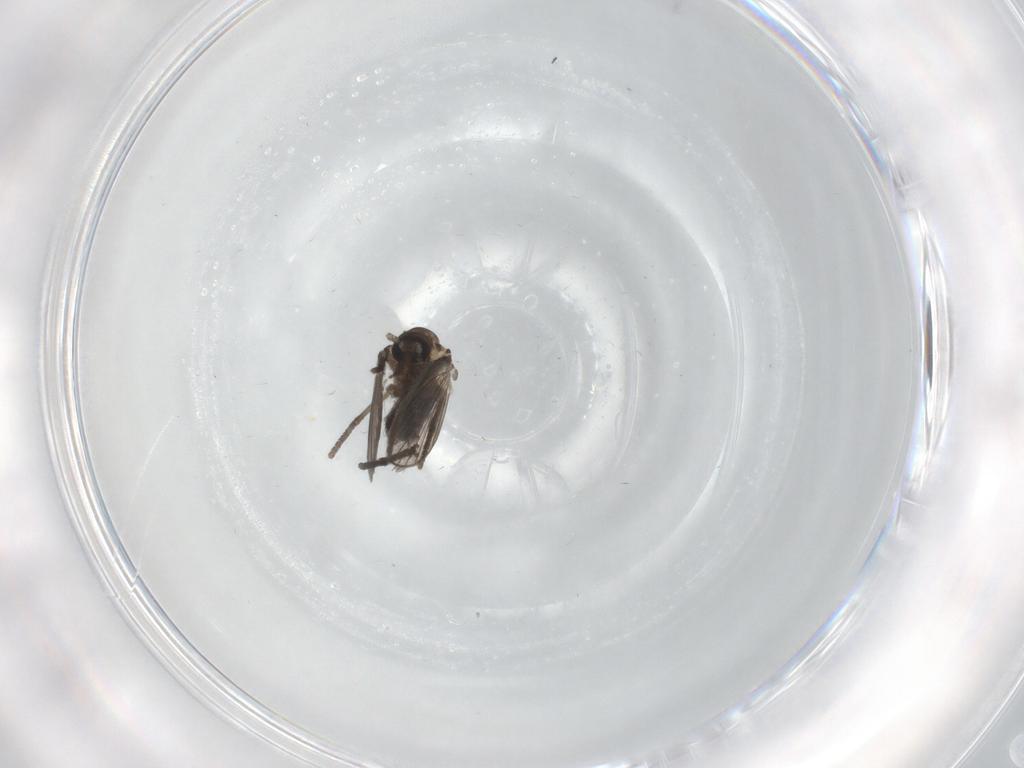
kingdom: Animalia
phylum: Arthropoda
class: Insecta
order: Diptera
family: Psychodidae
